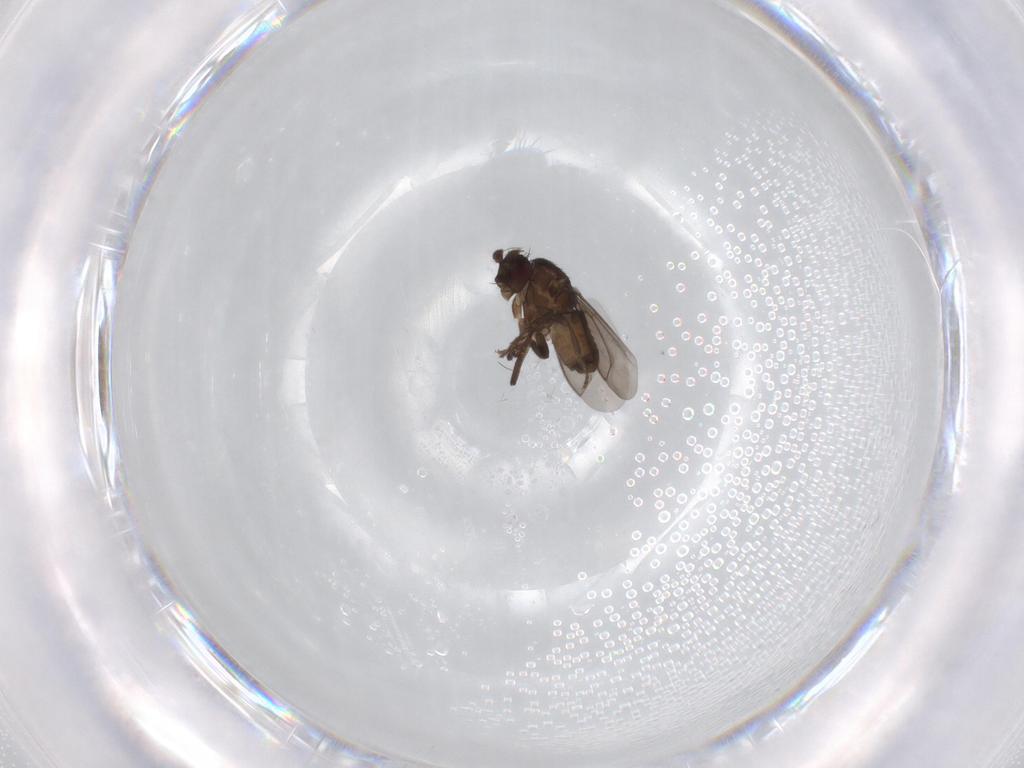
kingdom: Animalia
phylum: Arthropoda
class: Insecta
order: Diptera
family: Sphaeroceridae
